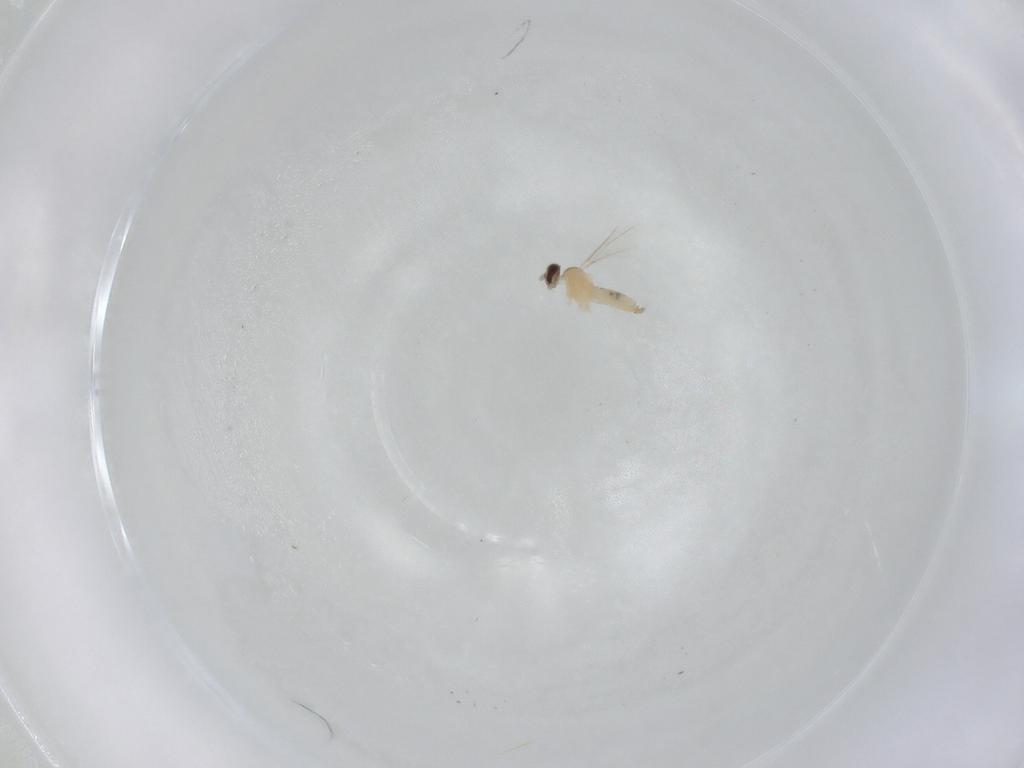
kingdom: Animalia
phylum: Arthropoda
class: Insecta
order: Diptera
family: Cecidomyiidae
